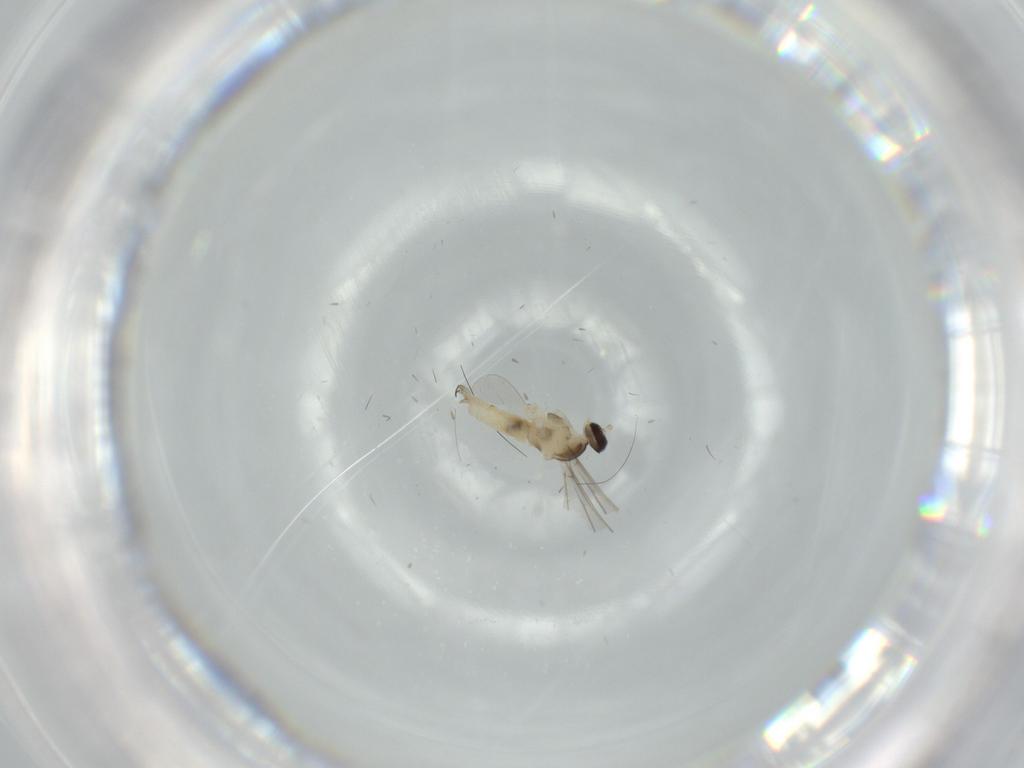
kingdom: Animalia
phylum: Arthropoda
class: Insecta
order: Diptera
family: Cecidomyiidae
